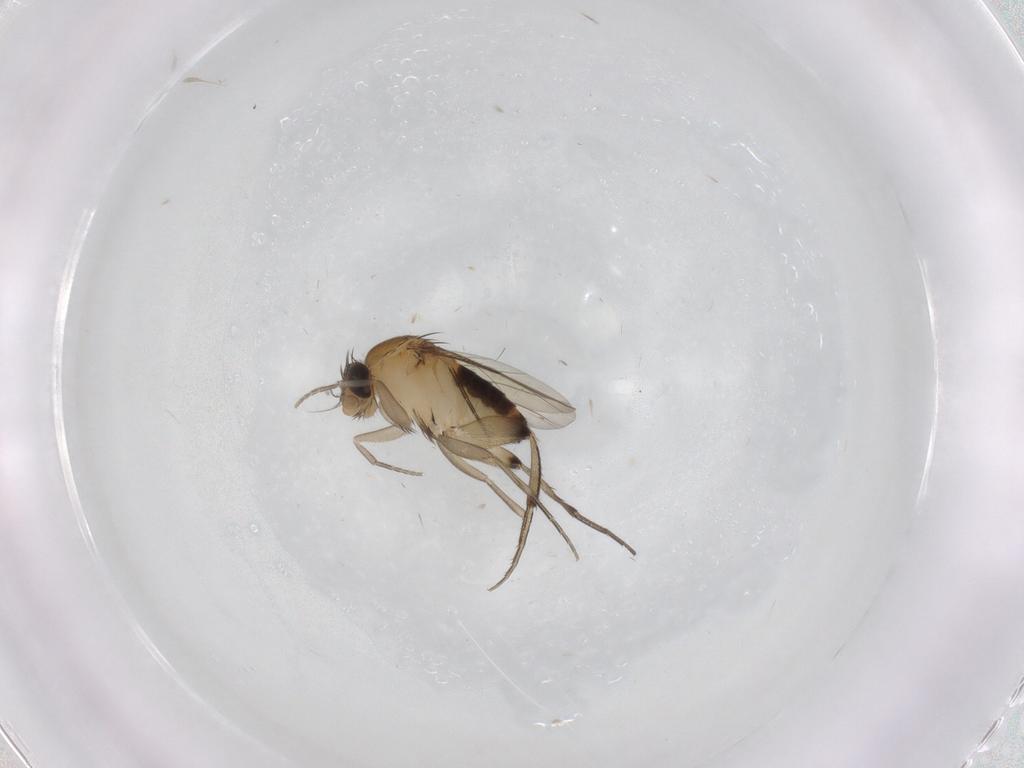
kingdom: Animalia
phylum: Arthropoda
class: Insecta
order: Diptera
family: Phoridae
